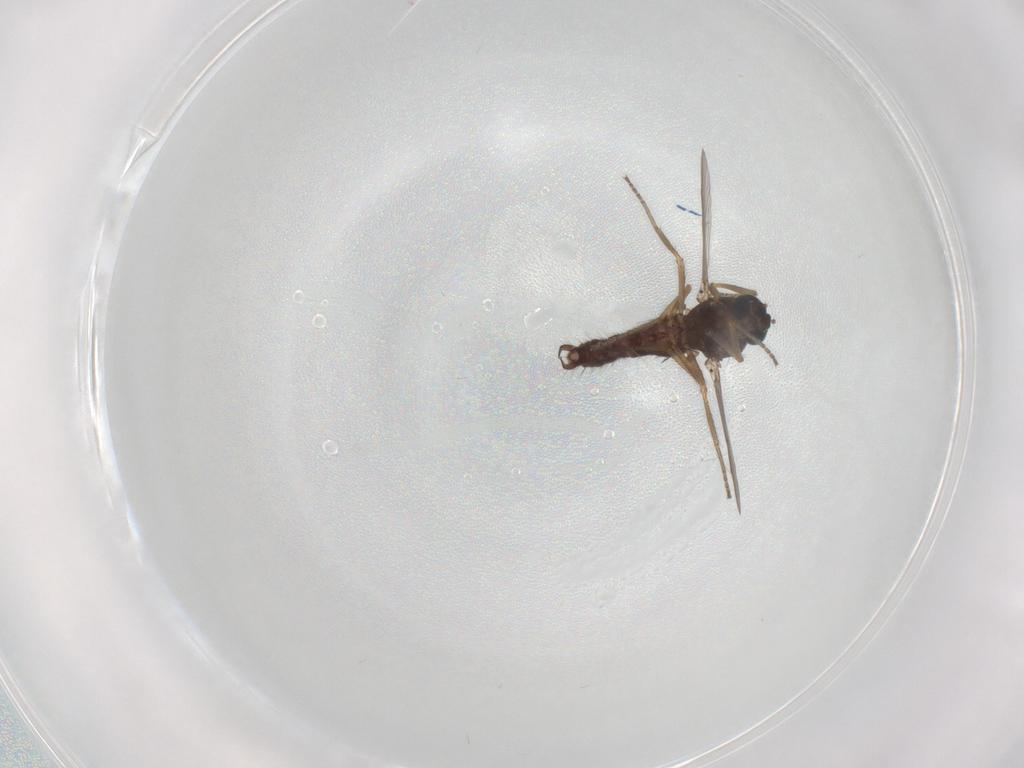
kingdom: Animalia
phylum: Arthropoda
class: Insecta
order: Diptera
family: Ceratopogonidae
